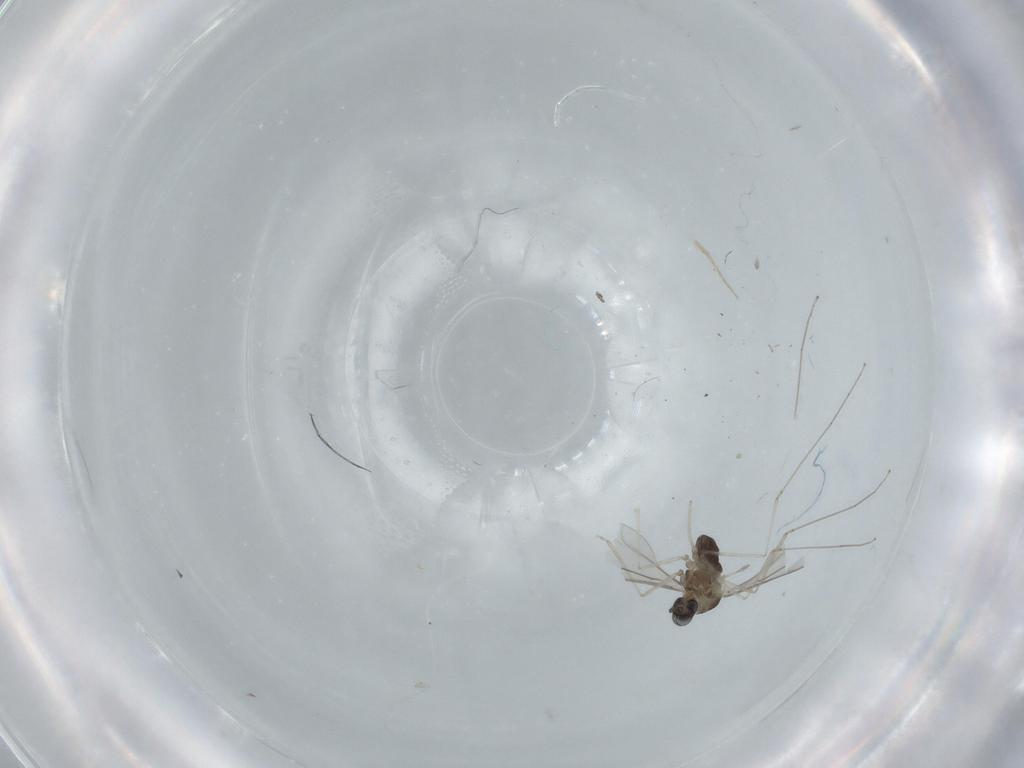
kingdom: Animalia
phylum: Arthropoda
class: Insecta
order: Diptera
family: Cecidomyiidae
